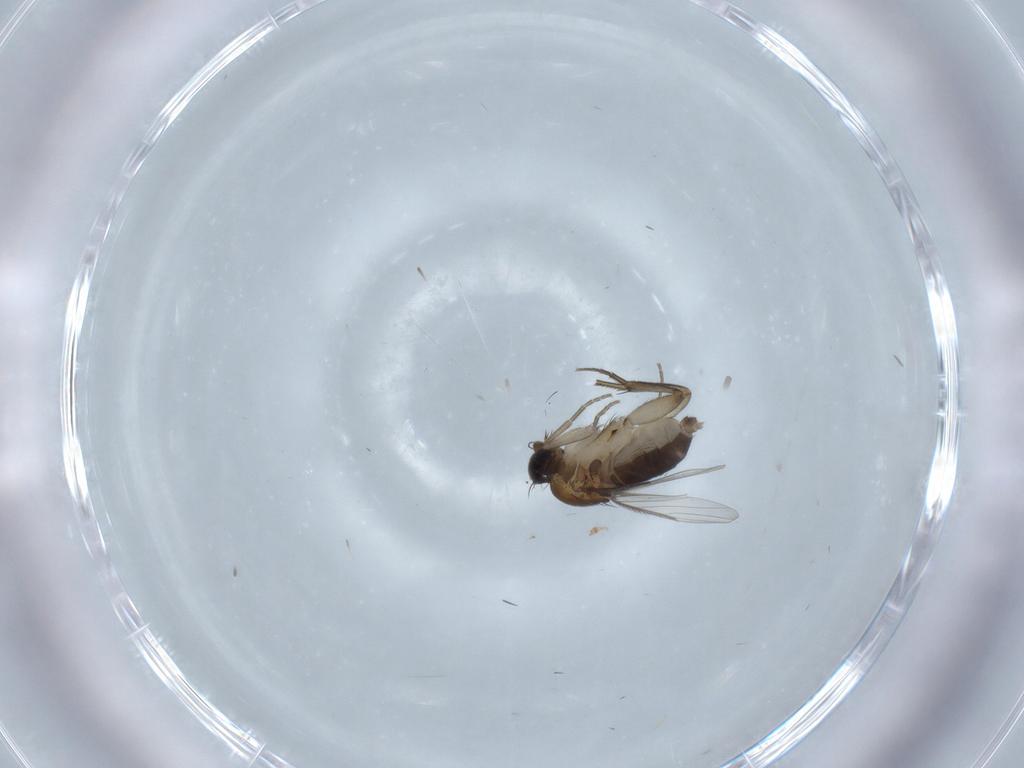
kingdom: Animalia
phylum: Arthropoda
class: Insecta
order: Diptera
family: Phoridae
